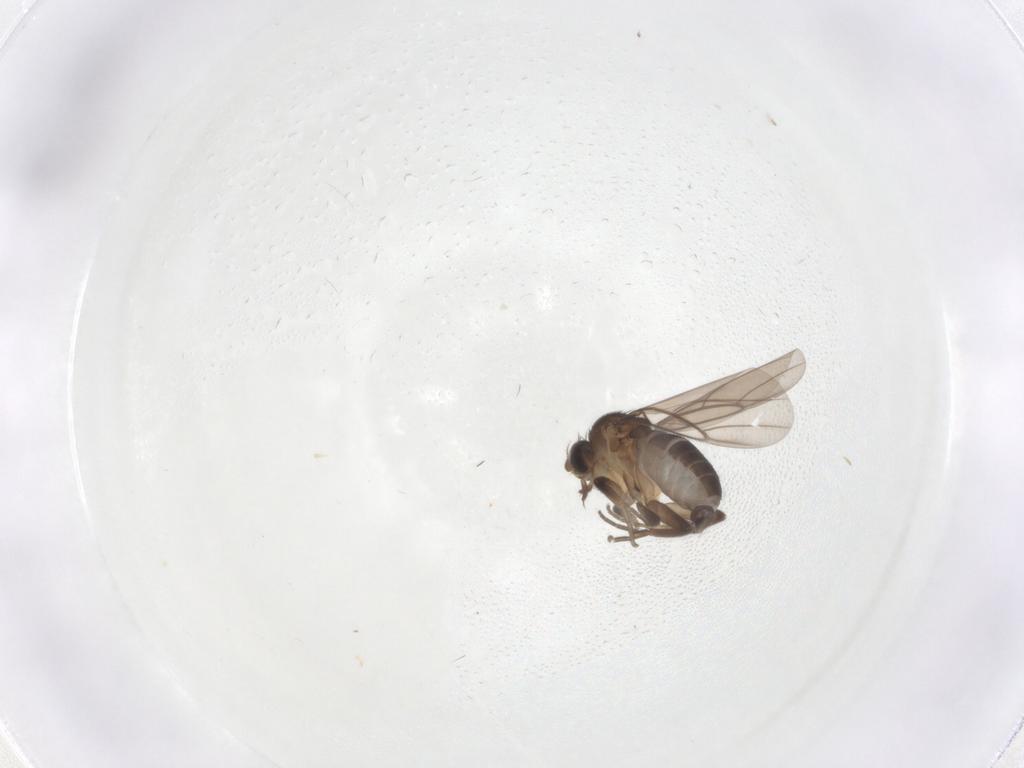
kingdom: Animalia
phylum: Arthropoda
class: Insecta
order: Diptera
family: Phoridae
